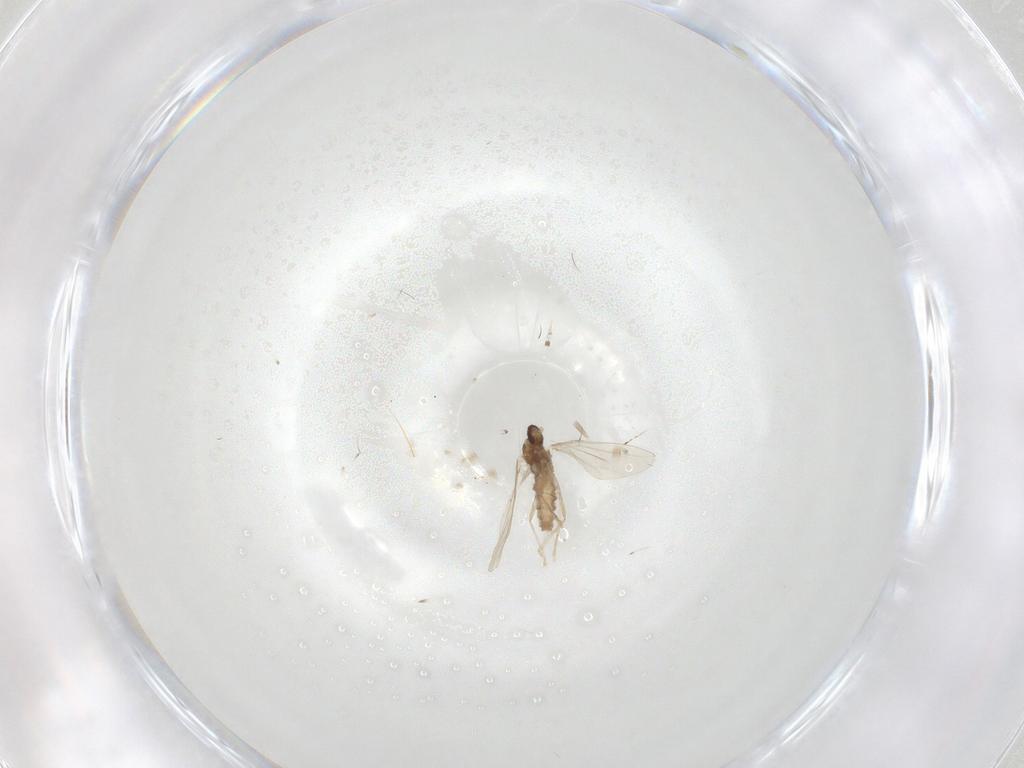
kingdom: Animalia
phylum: Arthropoda
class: Insecta
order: Diptera
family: Cecidomyiidae
